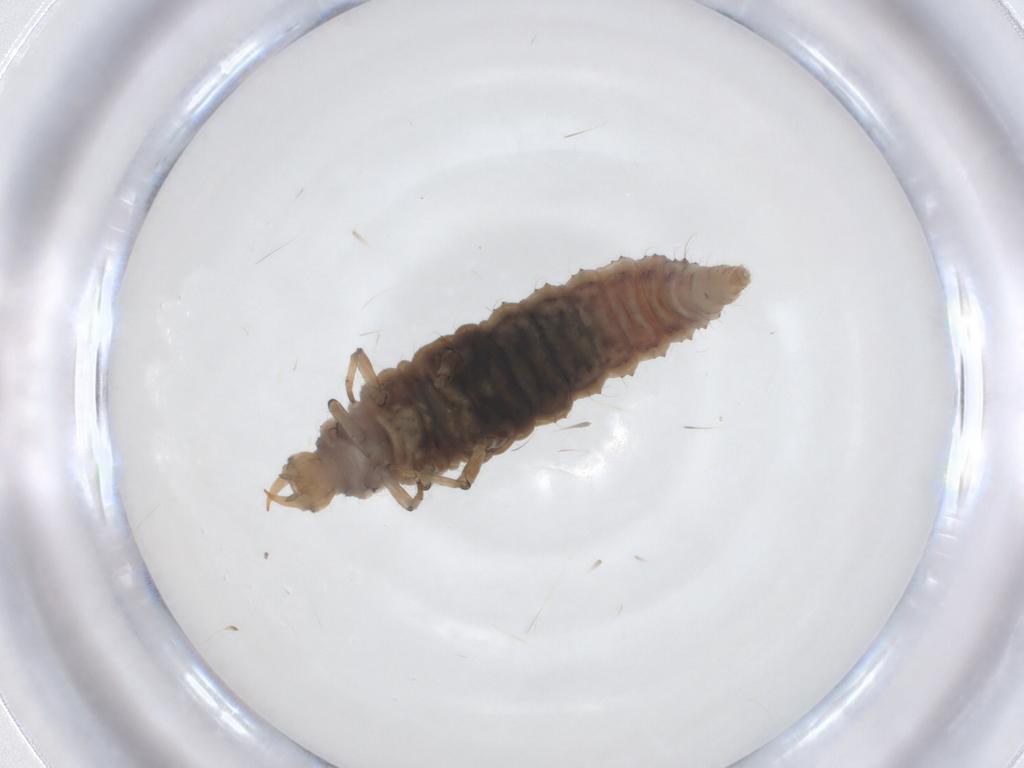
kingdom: Animalia
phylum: Arthropoda
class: Insecta
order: Neuroptera
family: Hemerobiidae
